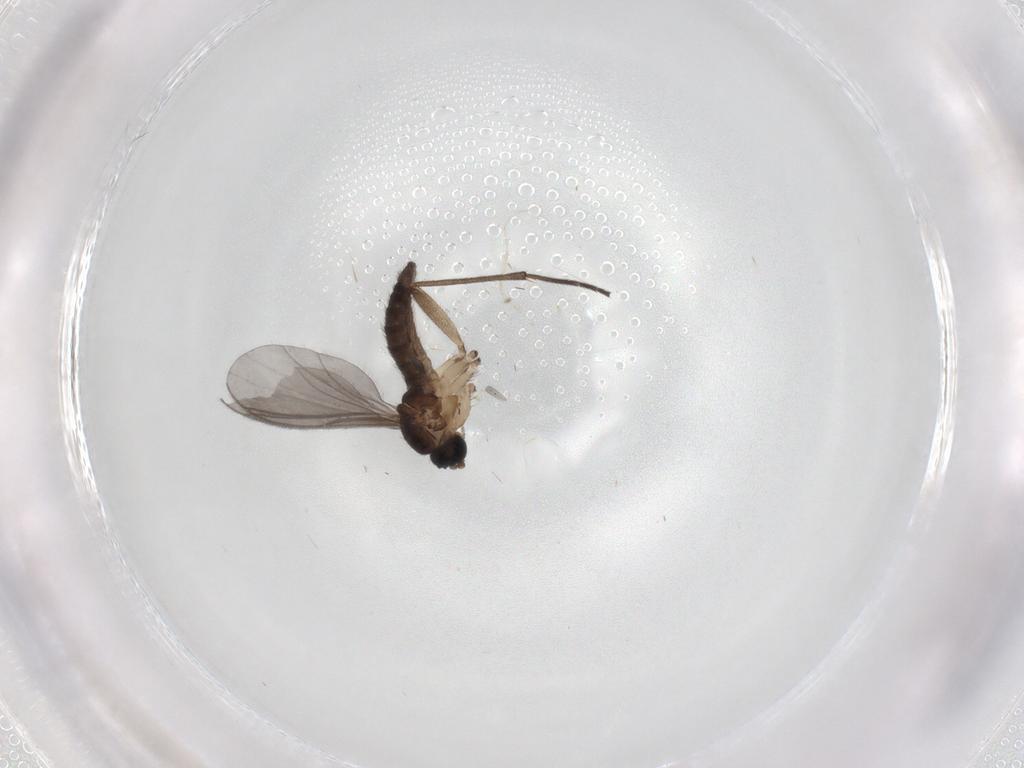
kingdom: Animalia
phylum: Arthropoda
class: Insecta
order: Diptera
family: Sciaridae
